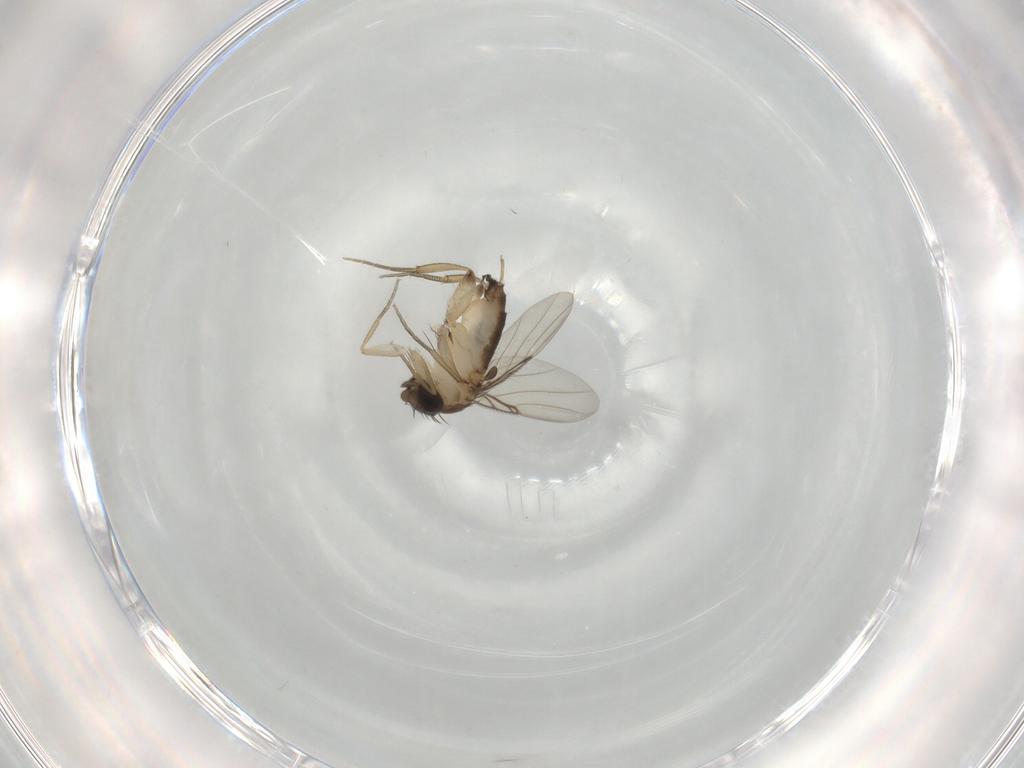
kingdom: Animalia
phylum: Arthropoda
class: Insecta
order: Diptera
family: Phoridae
